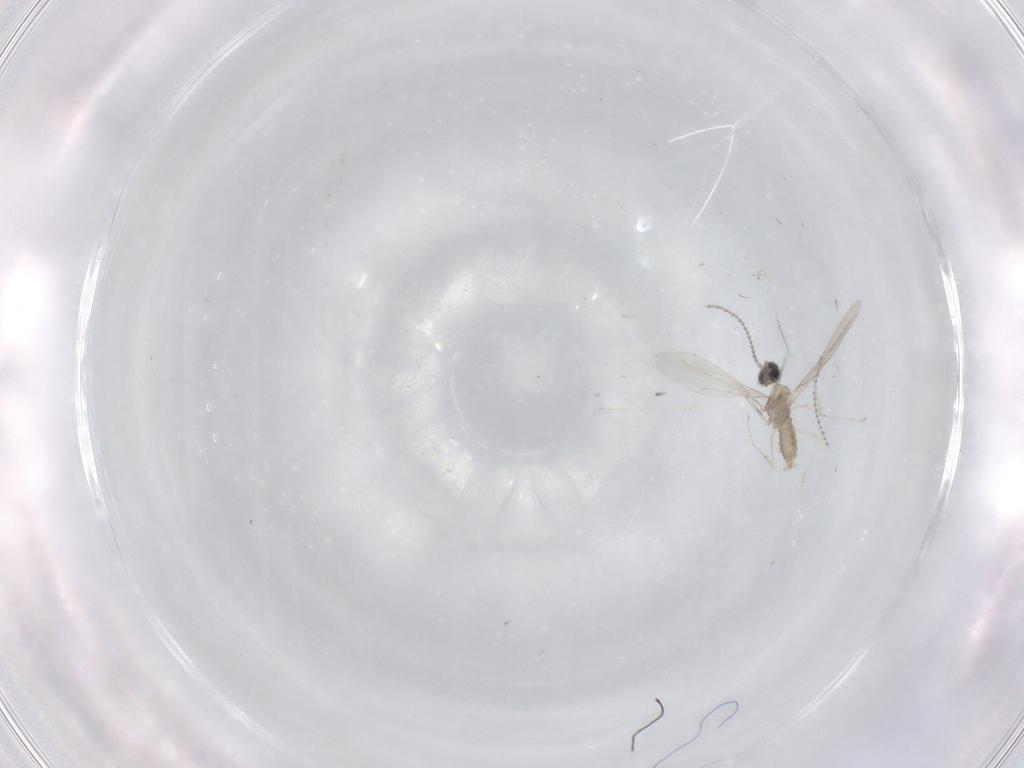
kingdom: Animalia
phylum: Arthropoda
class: Insecta
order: Diptera
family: Cecidomyiidae
